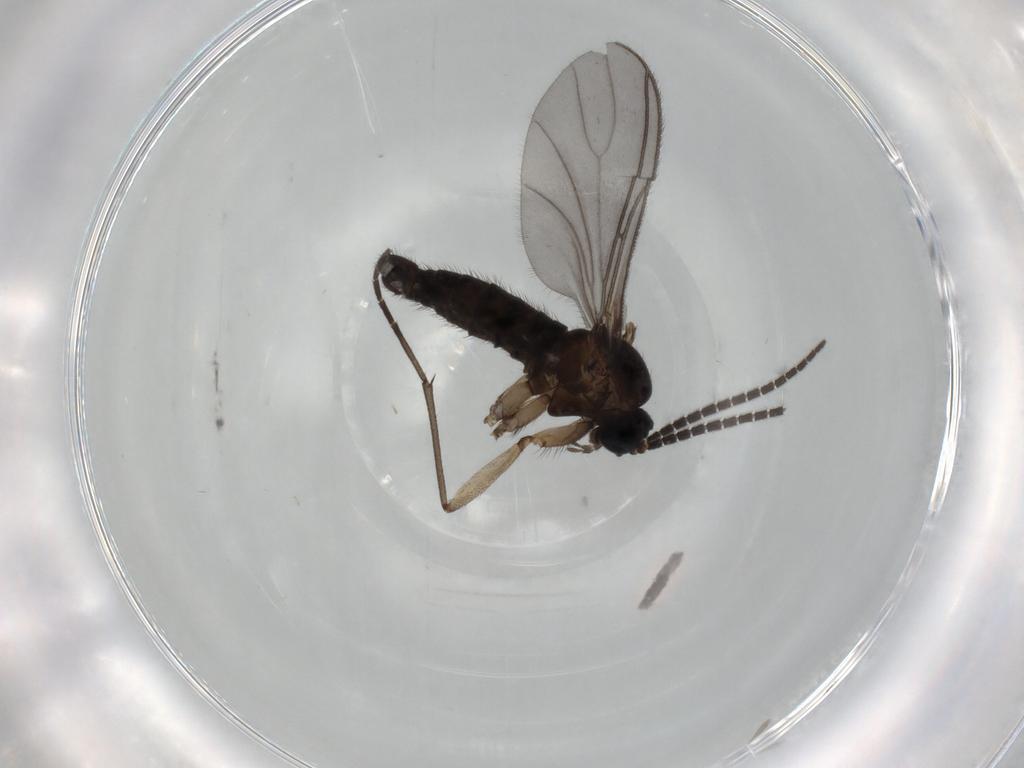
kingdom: Animalia
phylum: Arthropoda
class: Insecta
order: Diptera
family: Sciaridae
